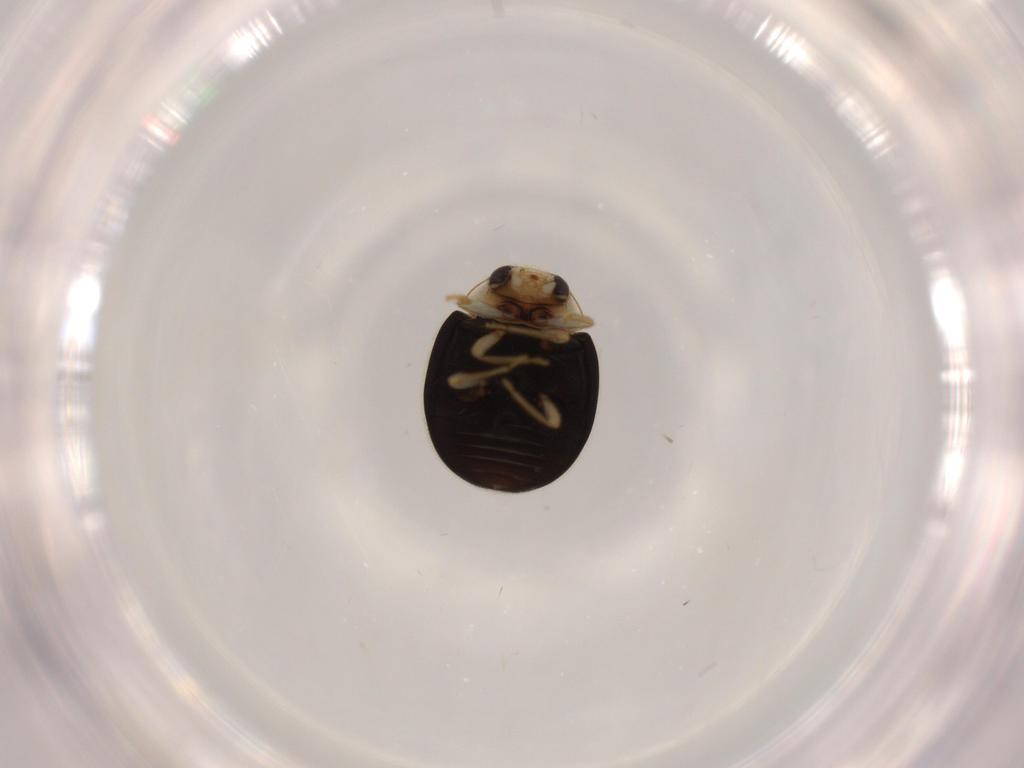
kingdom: Animalia
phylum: Arthropoda
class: Insecta
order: Coleoptera
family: Coccinellidae
